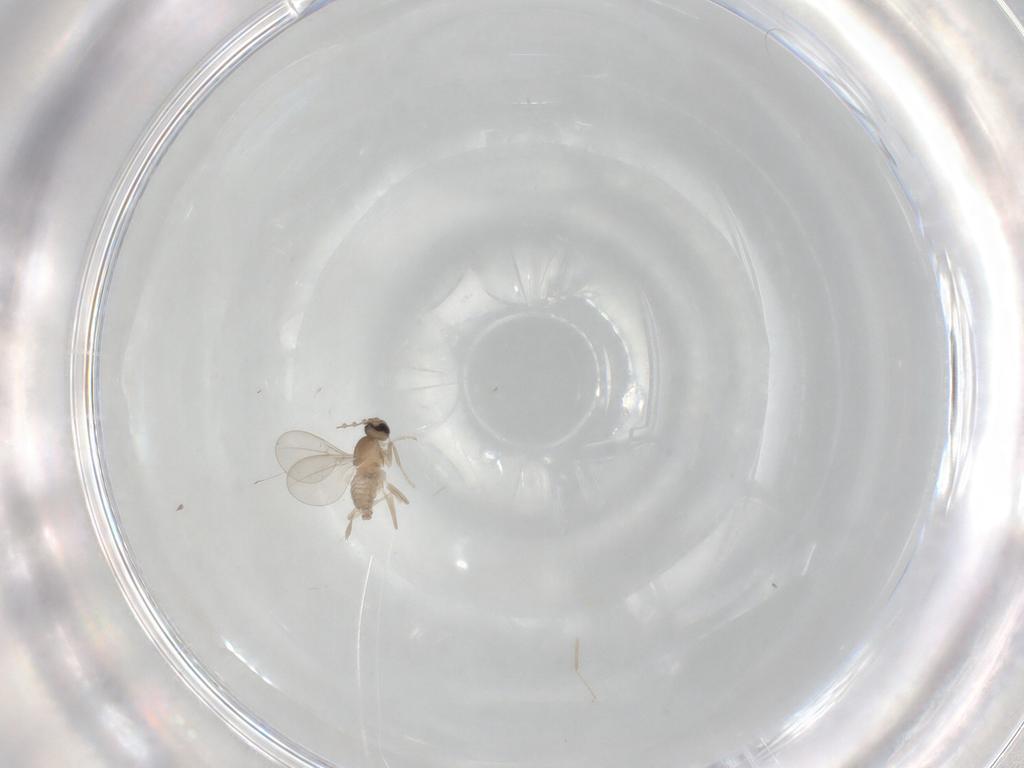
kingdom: Animalia
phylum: Arthropoda
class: Insecta
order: Diptera
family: Cecidomyiidae
